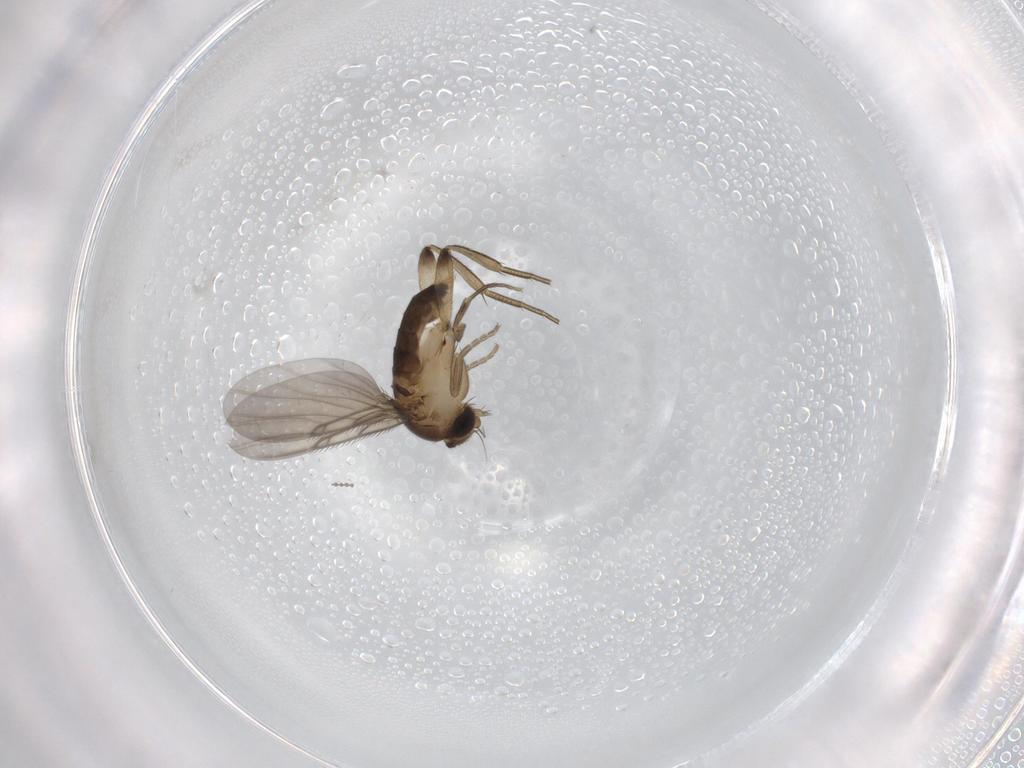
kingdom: Animalia
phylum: Arthropoda
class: Insecta
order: Diptera
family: Phoridae
